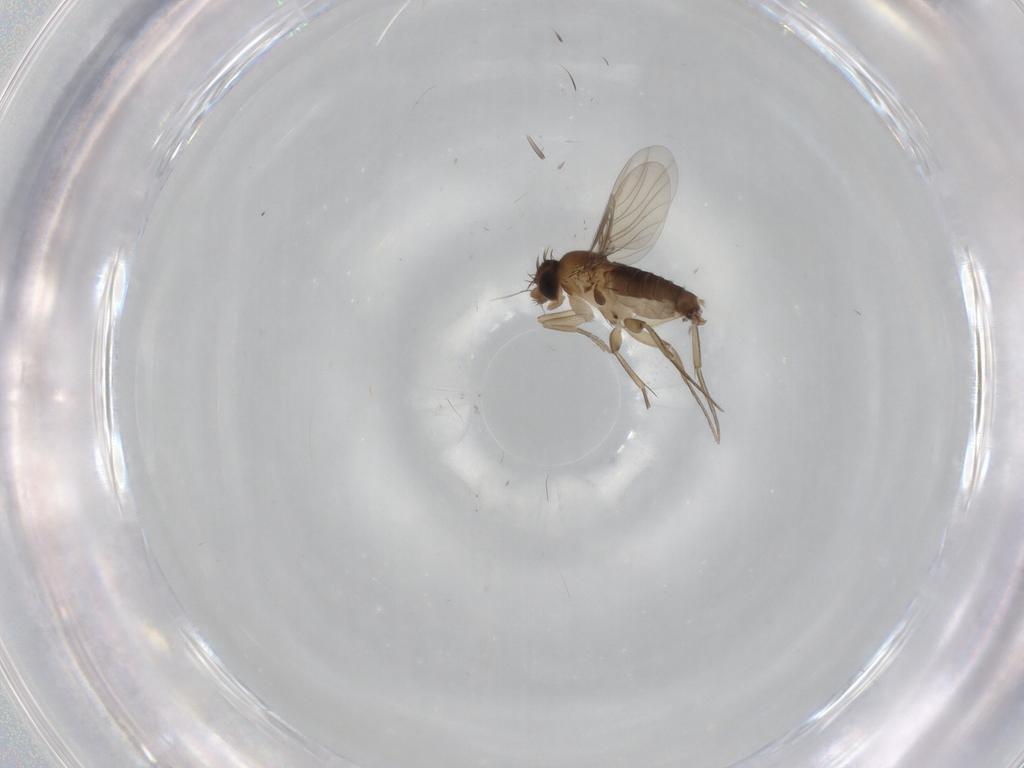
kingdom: Animalia
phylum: Arthropoda
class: Insecta
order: Diptera
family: Phoridae
